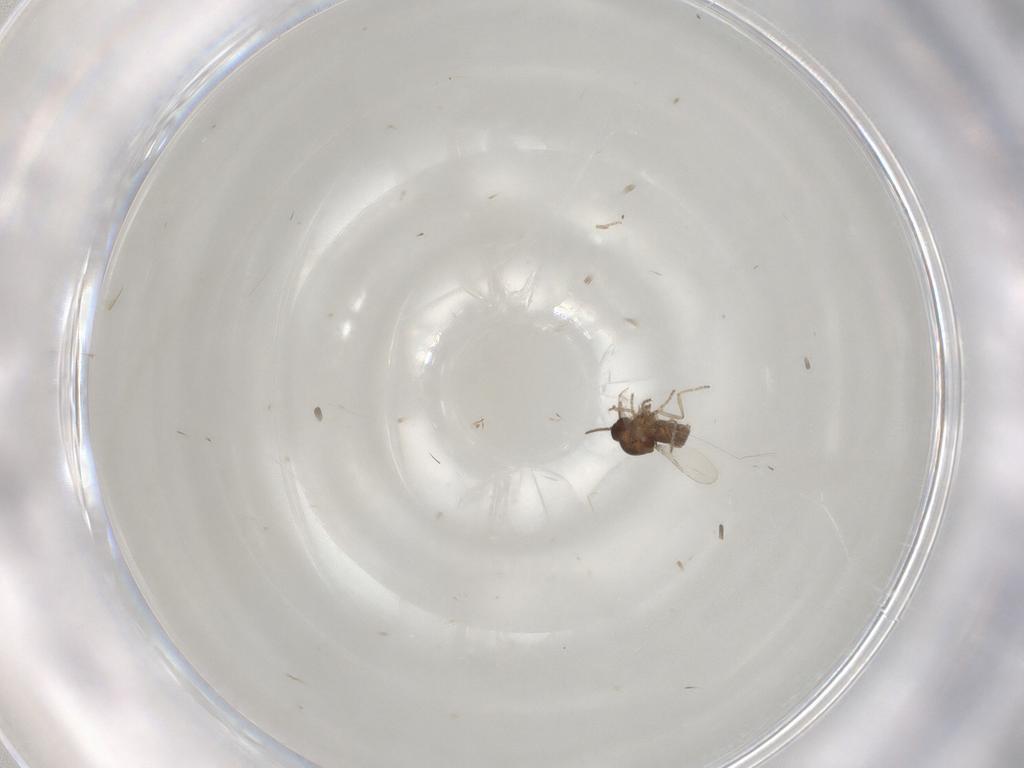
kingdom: Animalia
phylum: Arthropoda
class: Insecta
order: Diptera
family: Ceratopogonidae
